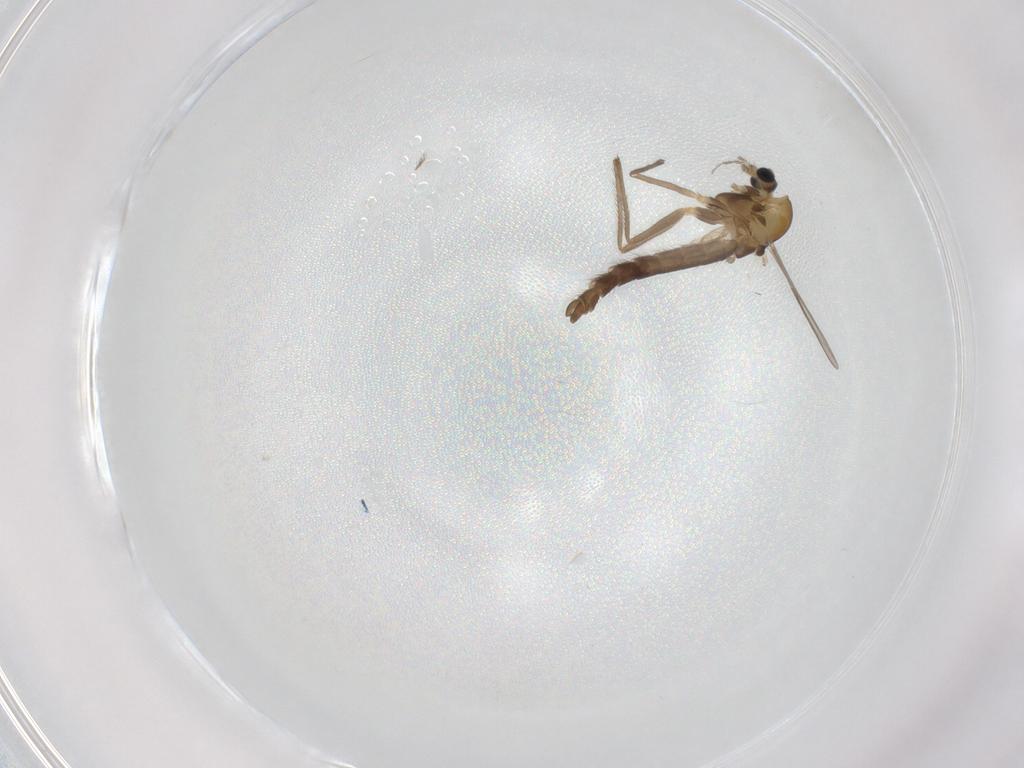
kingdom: Animalia
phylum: Arthropoda
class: Insecta
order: Diptera
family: Chironomidae
